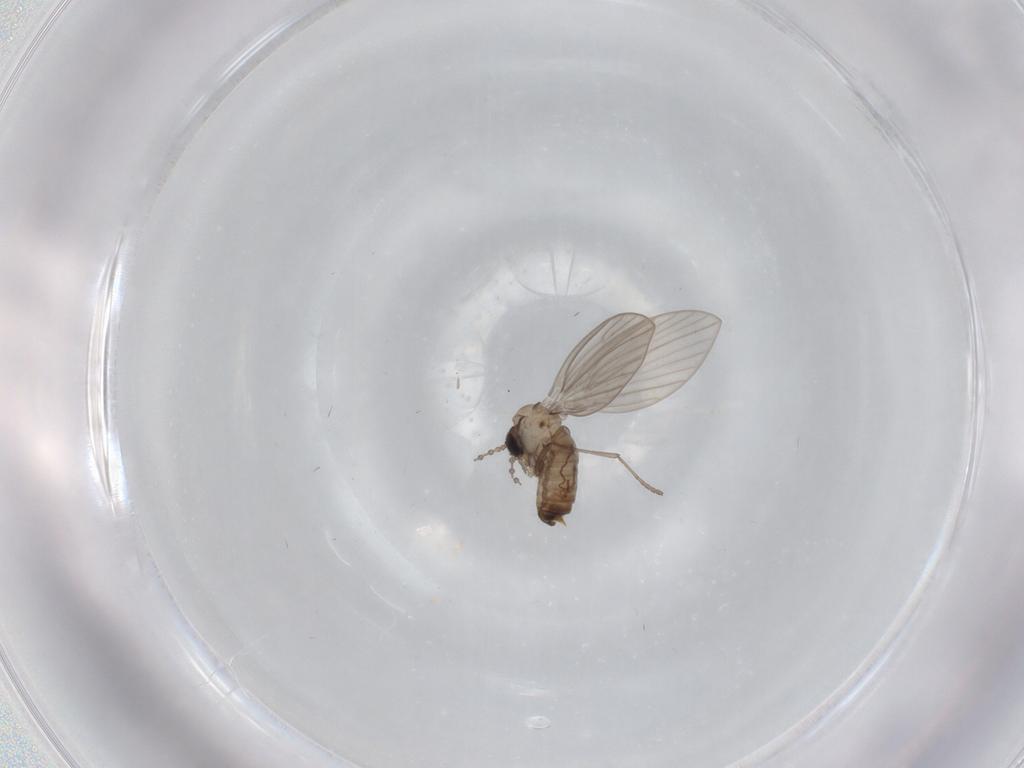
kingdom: Animalia
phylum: Arthropoda
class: Insecta
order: Diptera
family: Psychodidae
